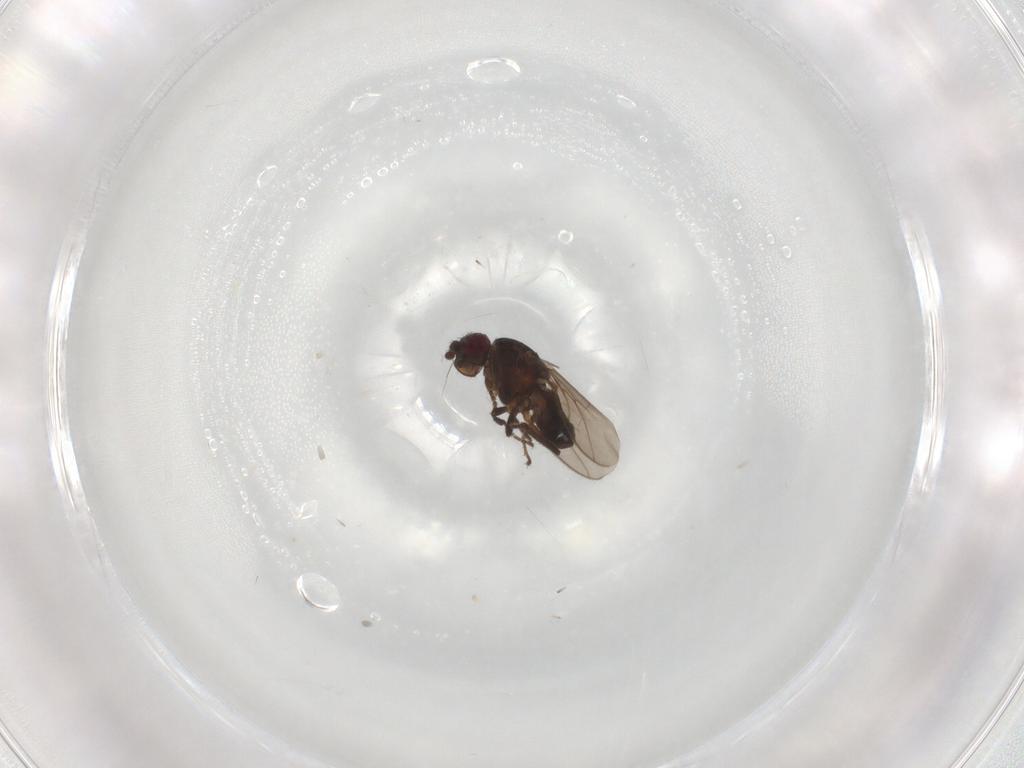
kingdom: Animalia
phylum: Arthropoda
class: Insecta
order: Diptera
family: Sphaeroceridae
